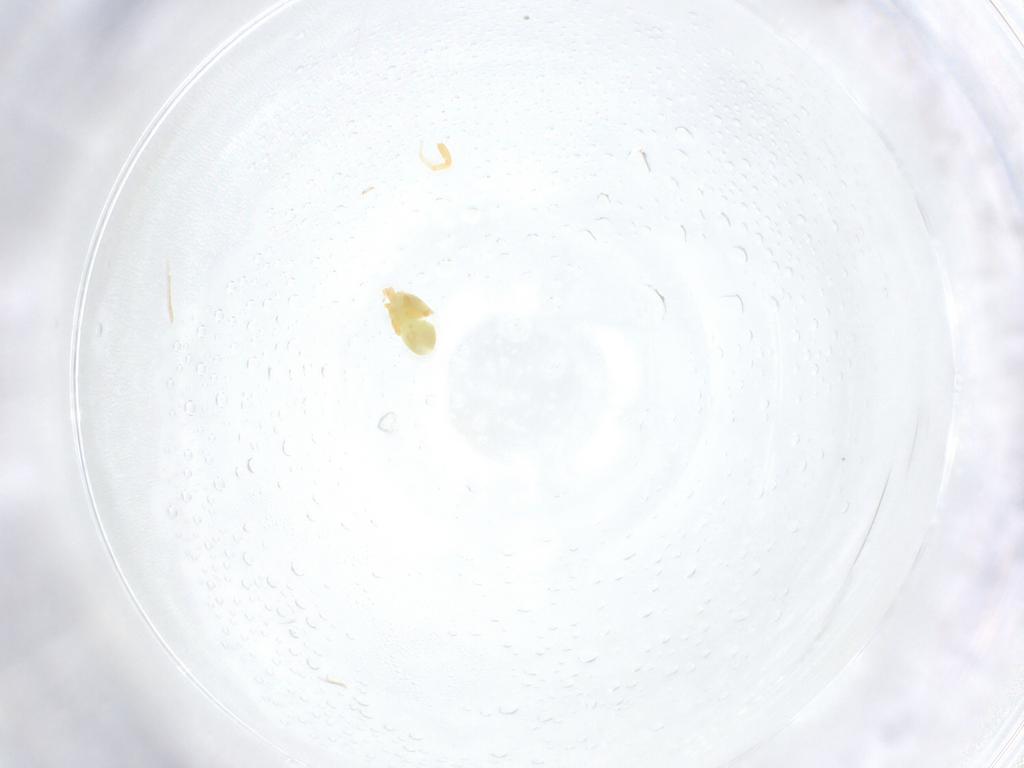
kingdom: Animalia
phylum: Arthropoda
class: Arachnida
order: Trombidiformes
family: Eupodidae
